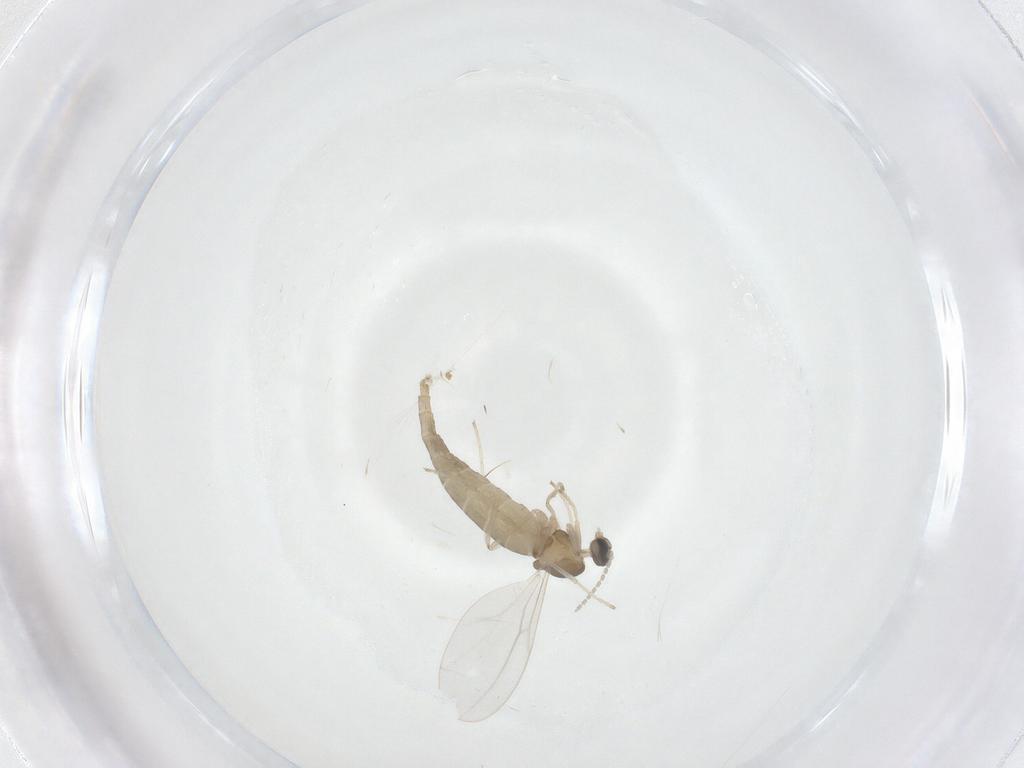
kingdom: Animalia
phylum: Arthropoda
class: Insecta
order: Diptera
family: Cecidomyiidae
